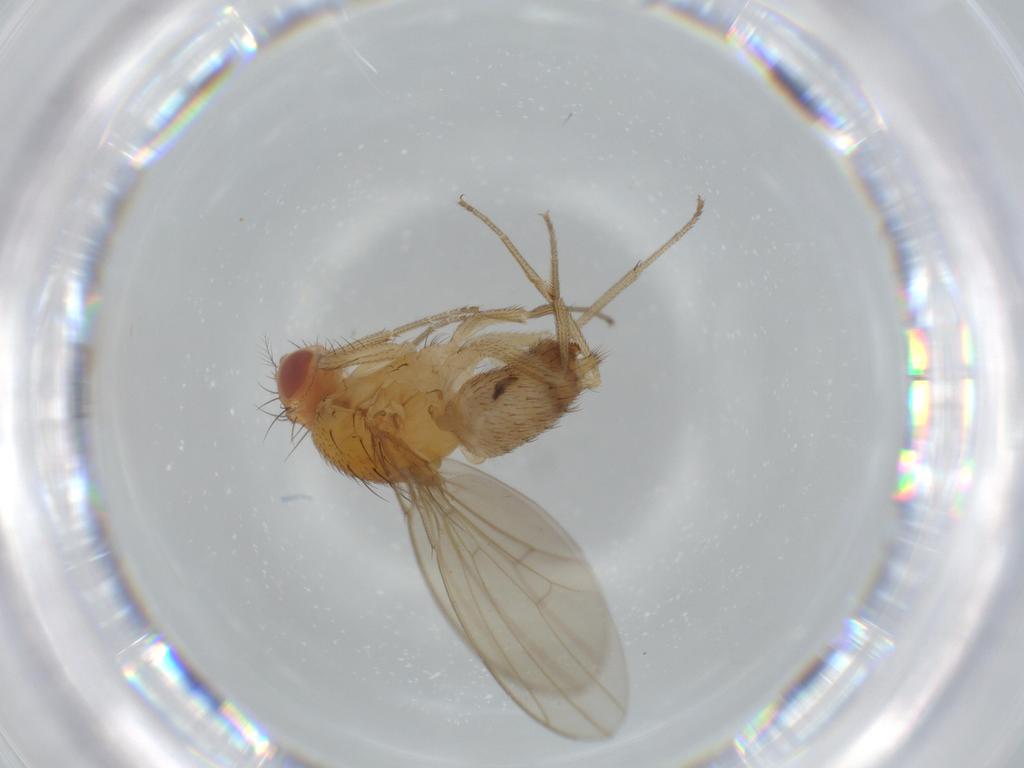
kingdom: Animalia
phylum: Arthropoda
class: Insecta
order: Diptera
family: Drosophilidae
